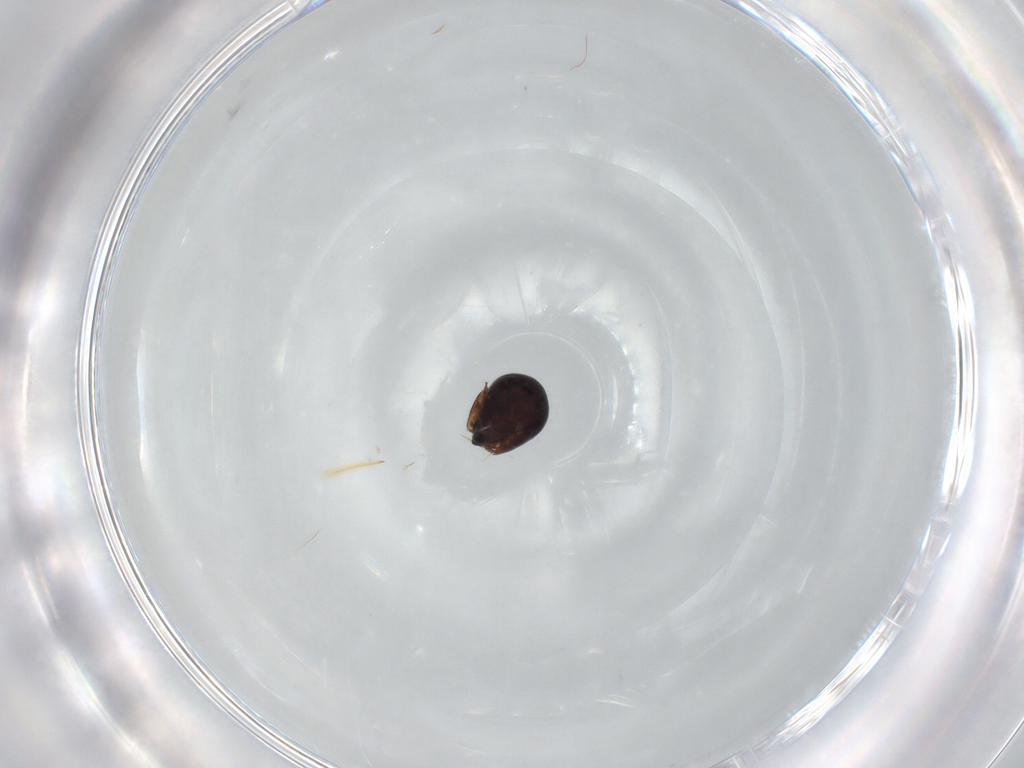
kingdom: Animalia
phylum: Arthropoda
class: Arachnida
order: Sarcoptiformes
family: Ceratozetidae
